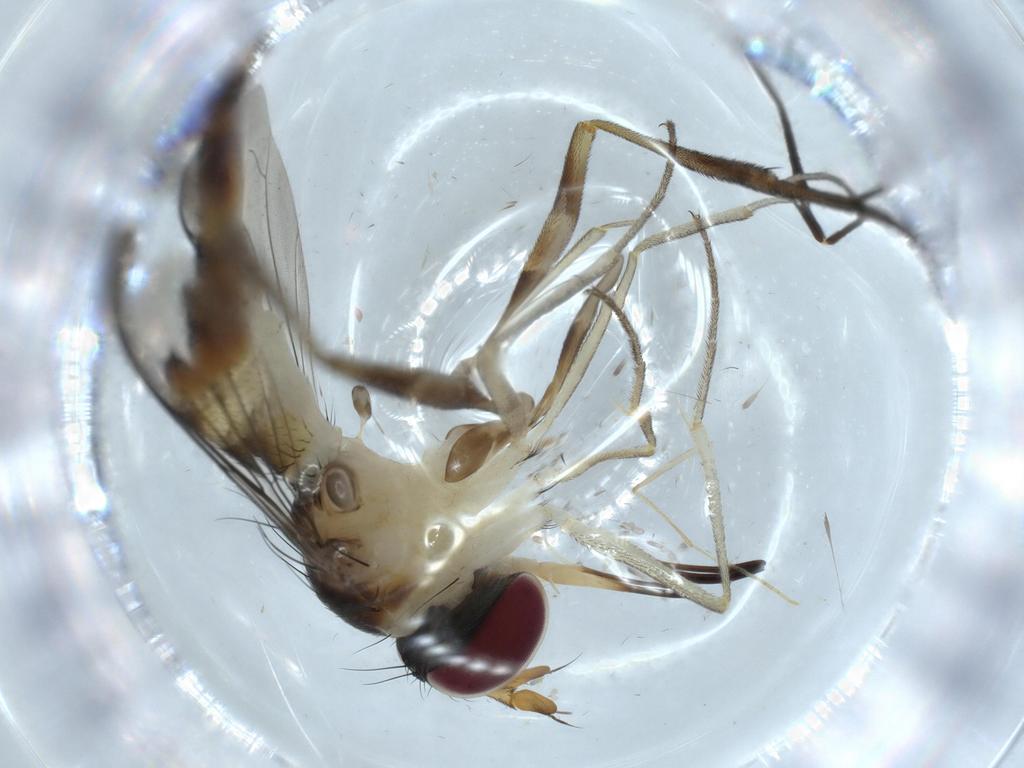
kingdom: Animalia
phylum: Arthropoda
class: Insecta
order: Diptera
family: Ceratopogonidae
